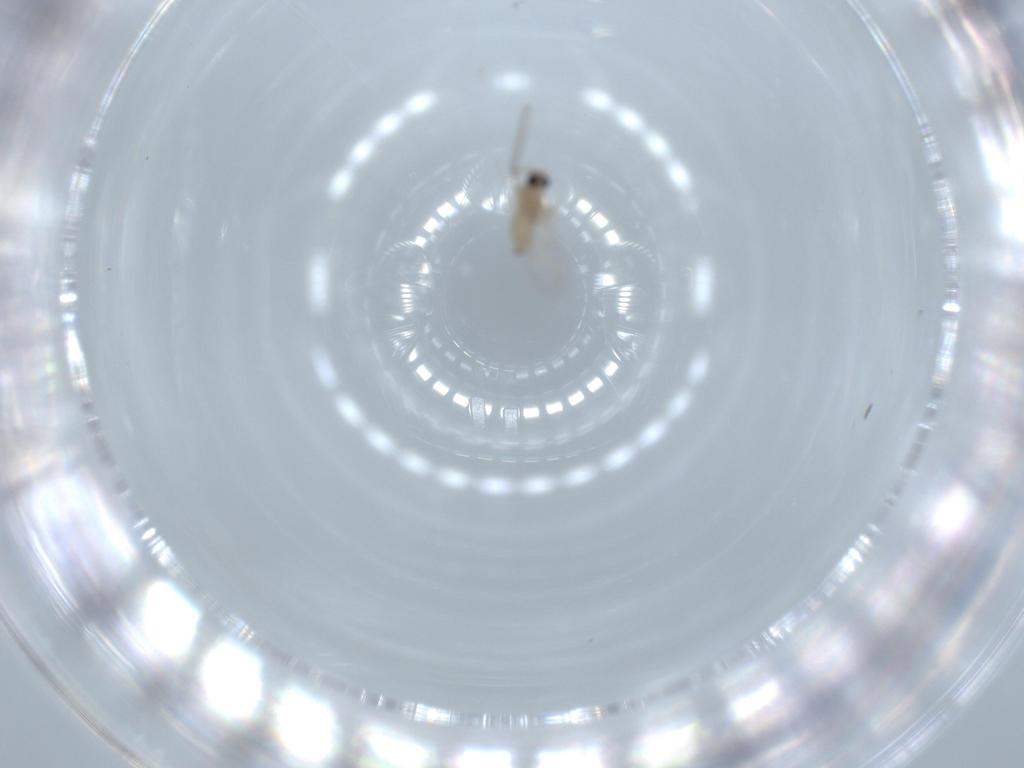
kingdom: Animalia
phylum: Arthropoda
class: Insecta
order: Diptera
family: Cecidomyiidae
